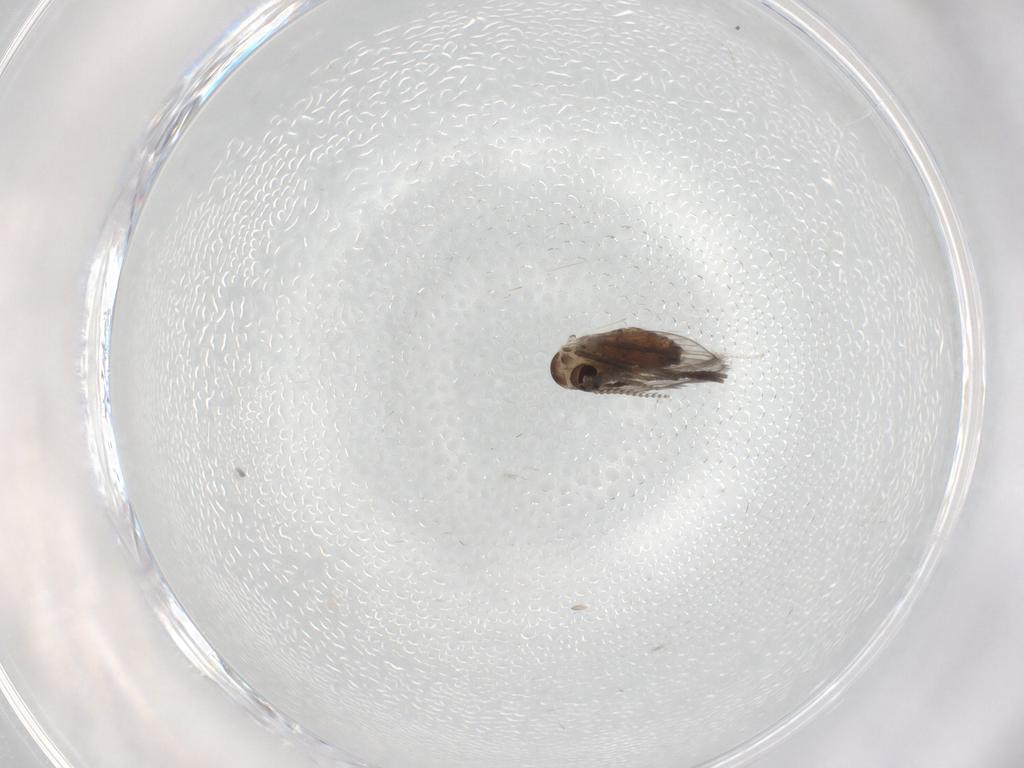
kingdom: Animalia
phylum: Arthropoda
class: Insecta
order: Diptera
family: Psychodidae
